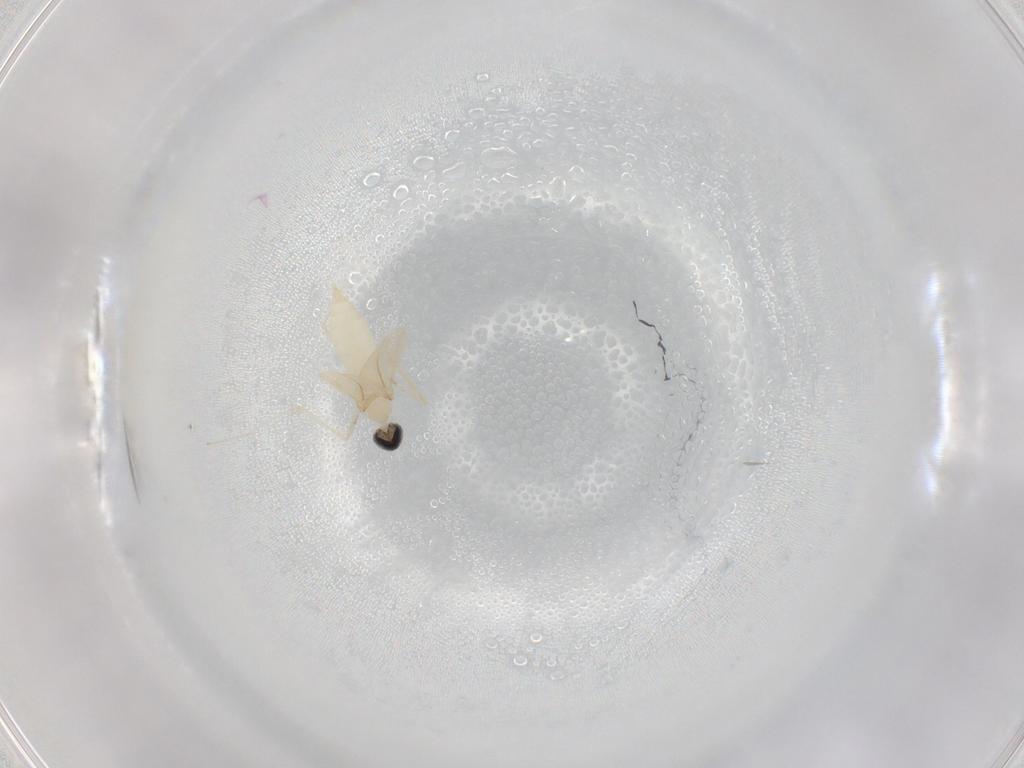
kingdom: Animalia
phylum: Arthropoda
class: Insecta
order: Diptera
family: Cecidomyiidae
